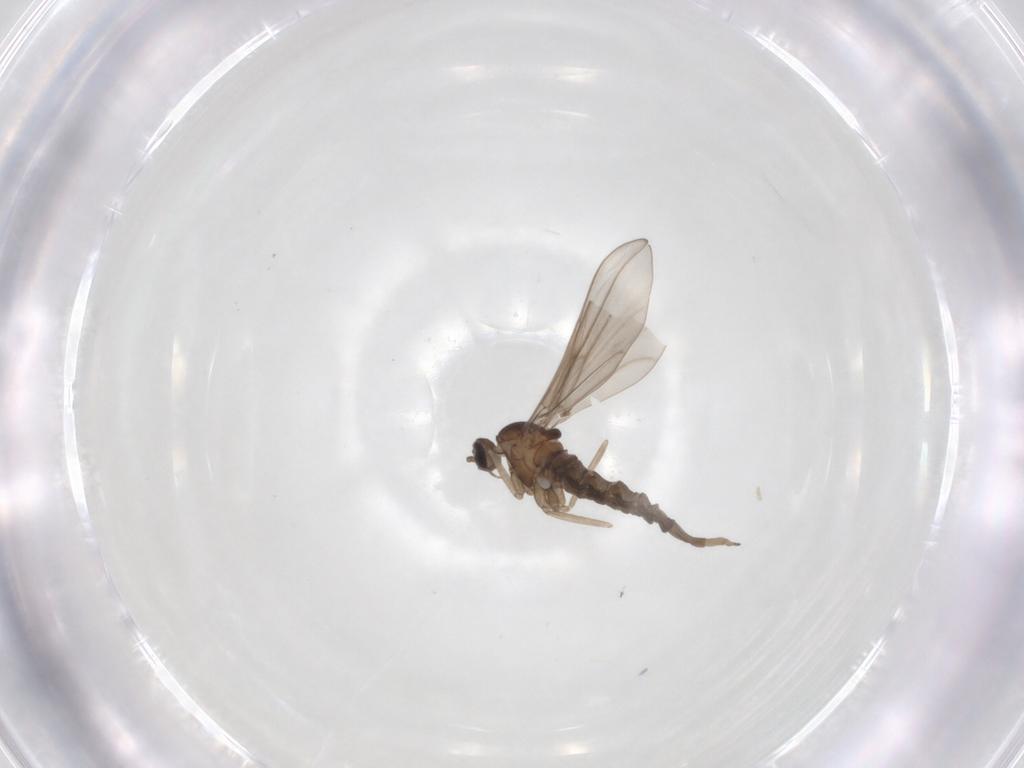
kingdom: Animalia
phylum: Arthropoda
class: Insecta
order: Diptera
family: Cecidomyiidae
